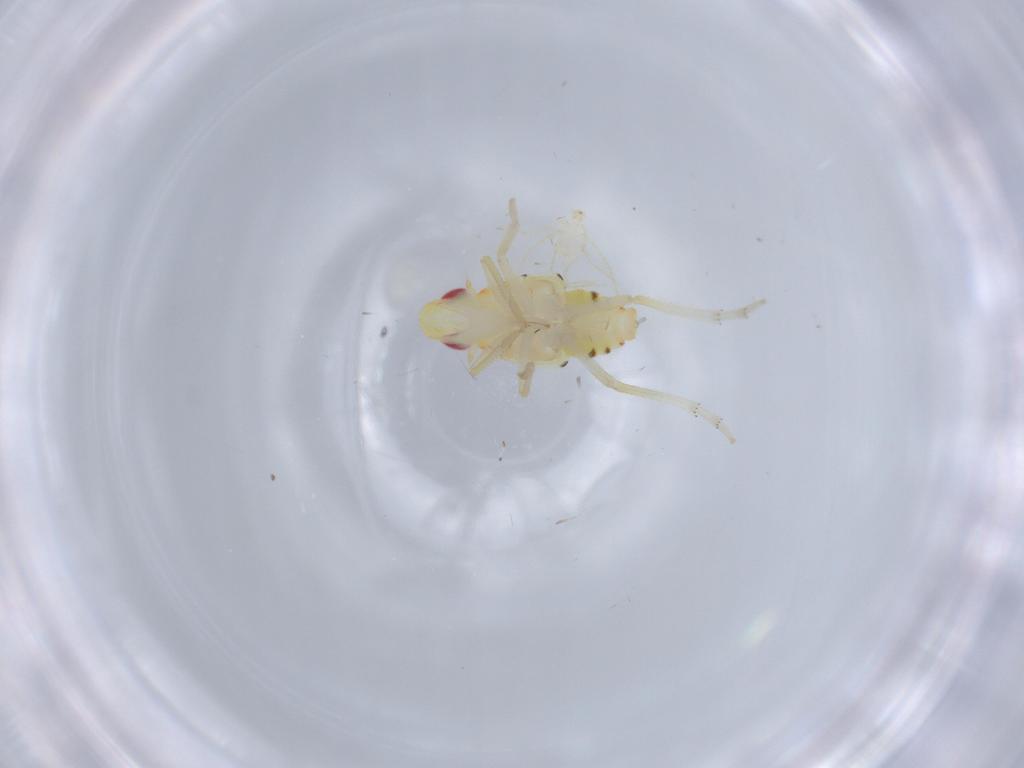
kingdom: Animalia
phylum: Arthropoda
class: Insecta
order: Hemiptera
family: Tropiduchidae
